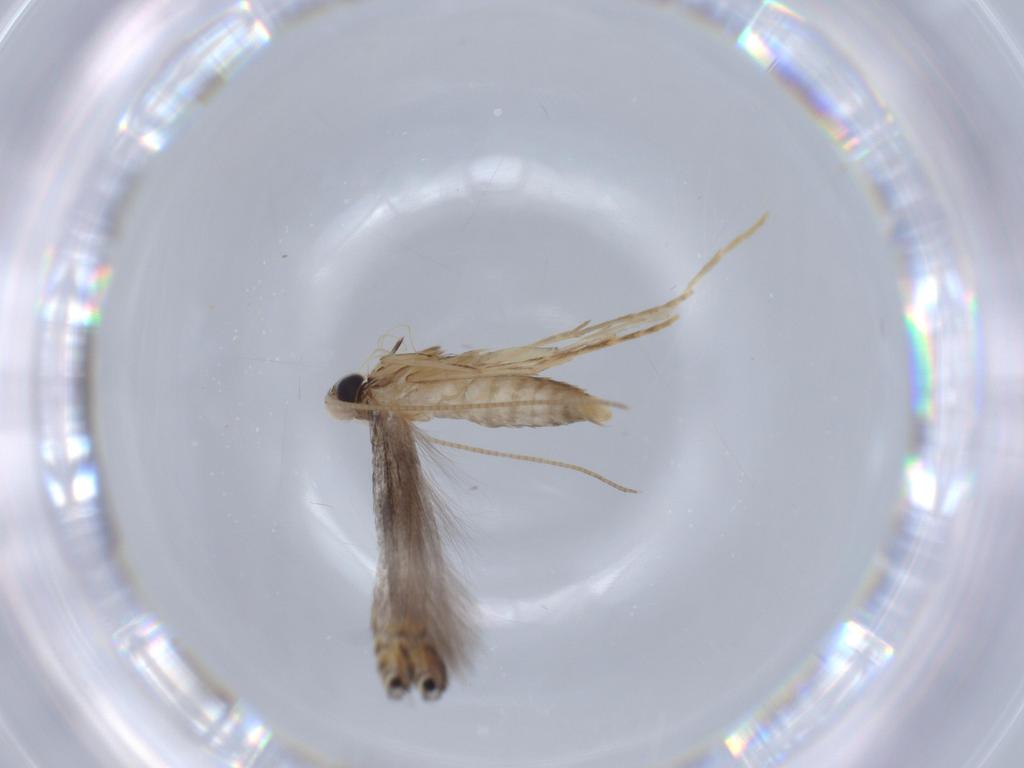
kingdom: Animalia
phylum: Arthropoda
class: Insecta
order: Lepidoptera
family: Gracillariidae
